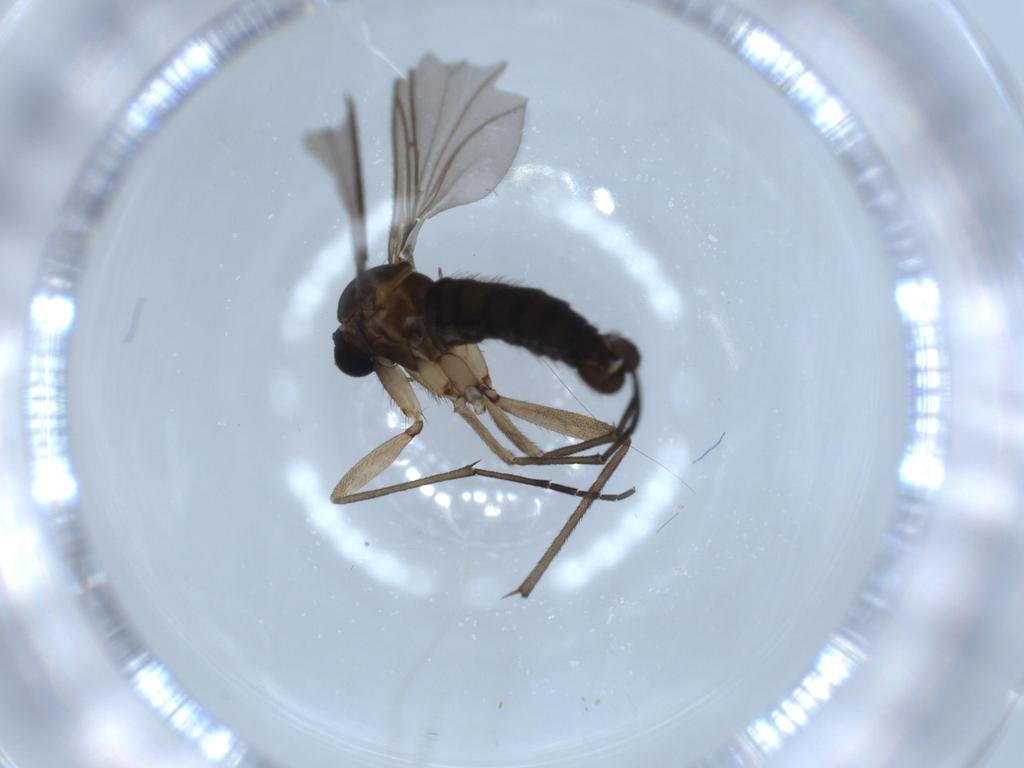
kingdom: Animalia
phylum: Arthropoda
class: Insecta
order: Diptera
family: Sciaridae
